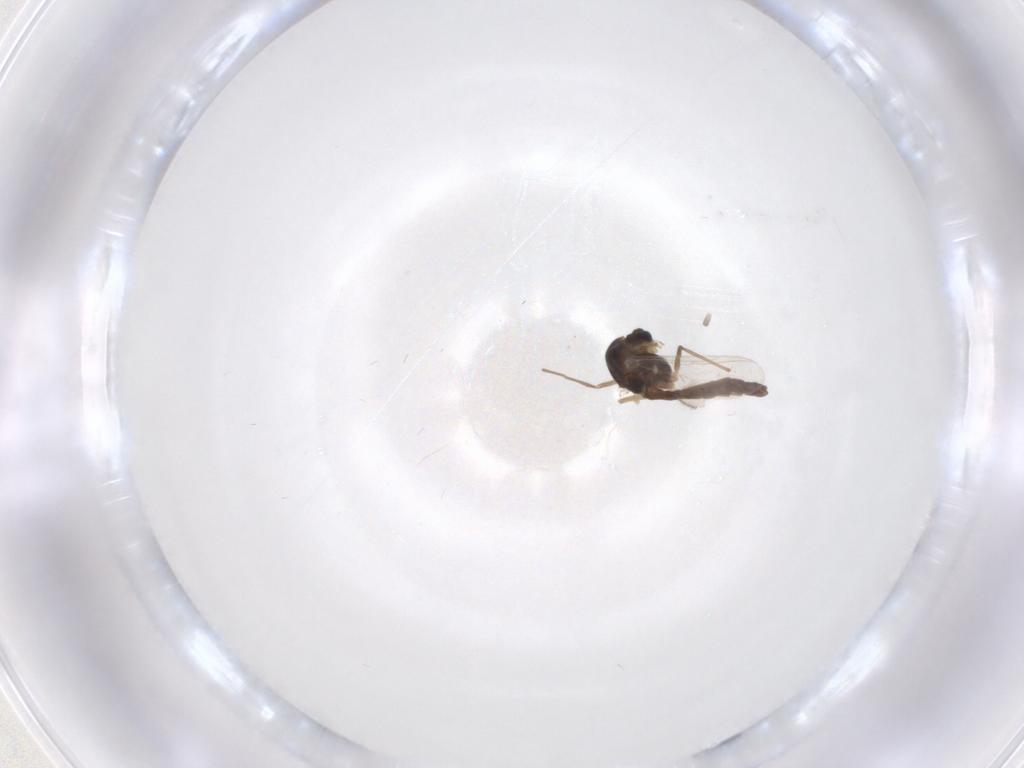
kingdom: Animalia
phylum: Arthropoda
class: Insecta
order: Diptera
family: Chironomidae
